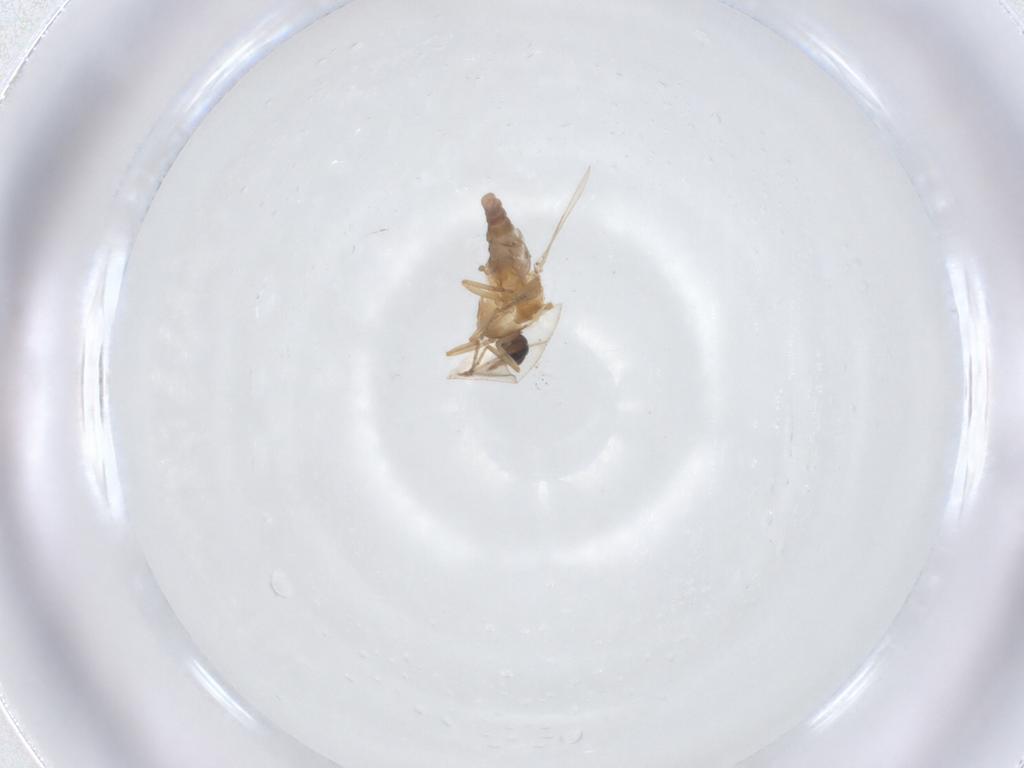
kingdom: Animalia
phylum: Arthropoda
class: Insecta
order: Diptera
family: Ceratopogonidae
